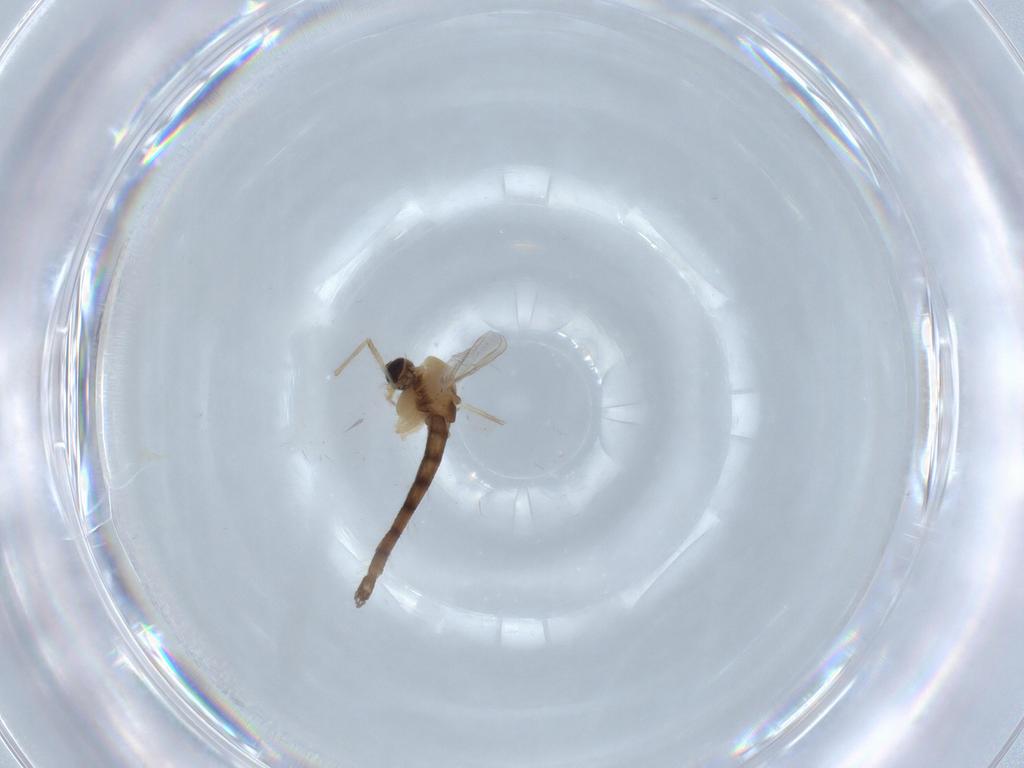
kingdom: Animalia
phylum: Arthropoda
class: Insecta
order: Diptera
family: Chironomidae
